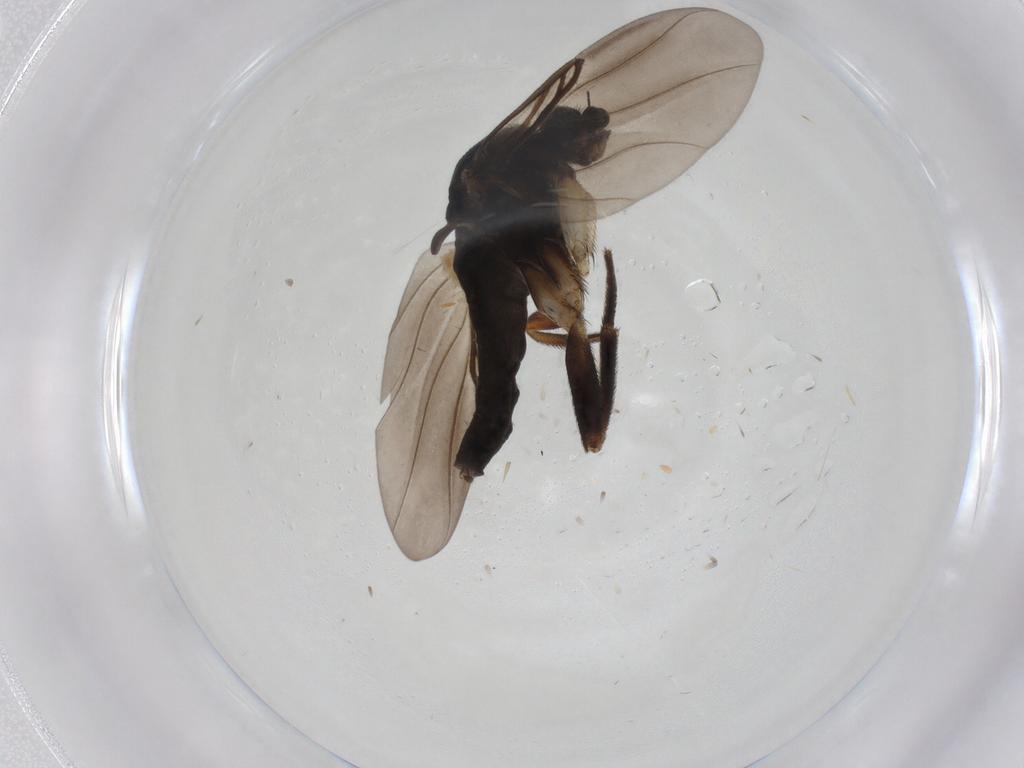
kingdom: Animalia
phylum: Arthropoda
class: Insecta
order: Diptera
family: Phoridae
